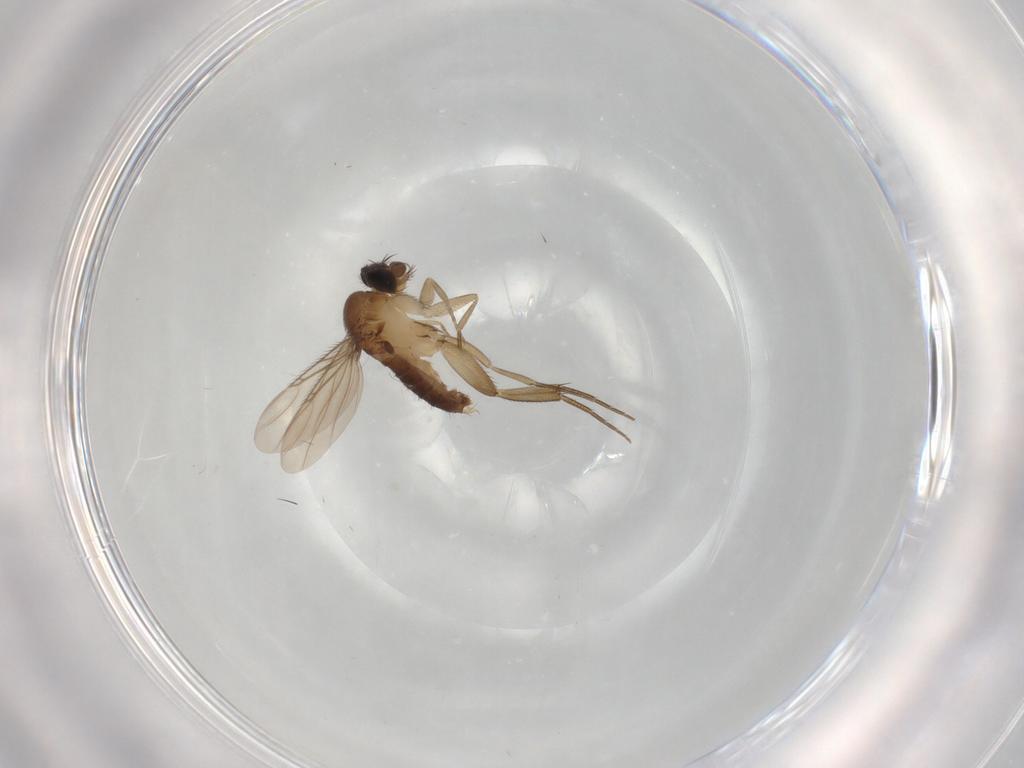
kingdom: Animalia
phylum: Arthropoda
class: Insecta
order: Diptera
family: Phoridae
